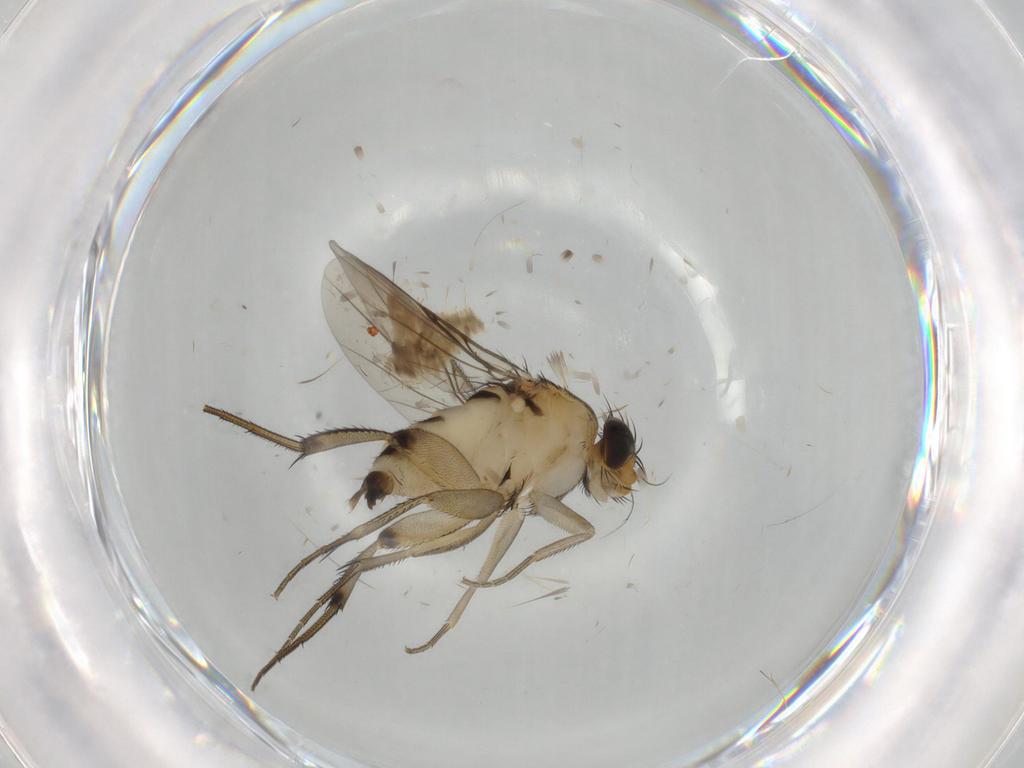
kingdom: Animalia
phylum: Arthropoda
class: Insecta
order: Diptera
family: Phoridae
